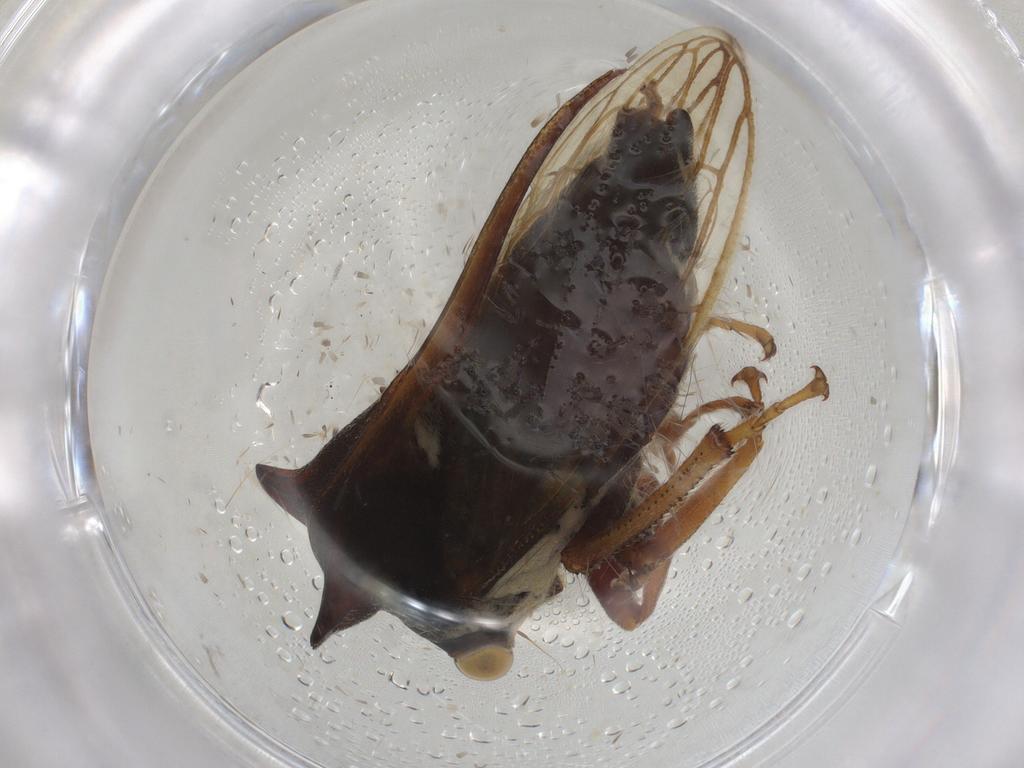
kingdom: Animalia
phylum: Arthropoda
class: Insecta
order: Hemiptera
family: Membracidae
